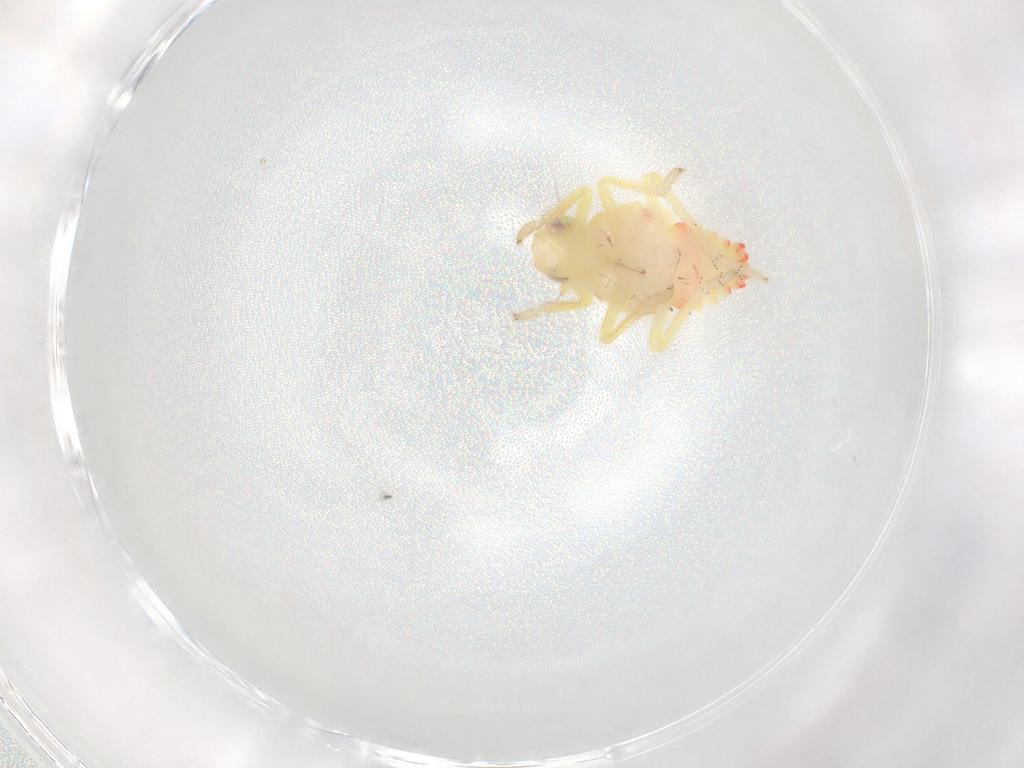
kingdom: Animalia
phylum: Arthropoda
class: Insecta
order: Hemiptera
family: Tropiduchidae
